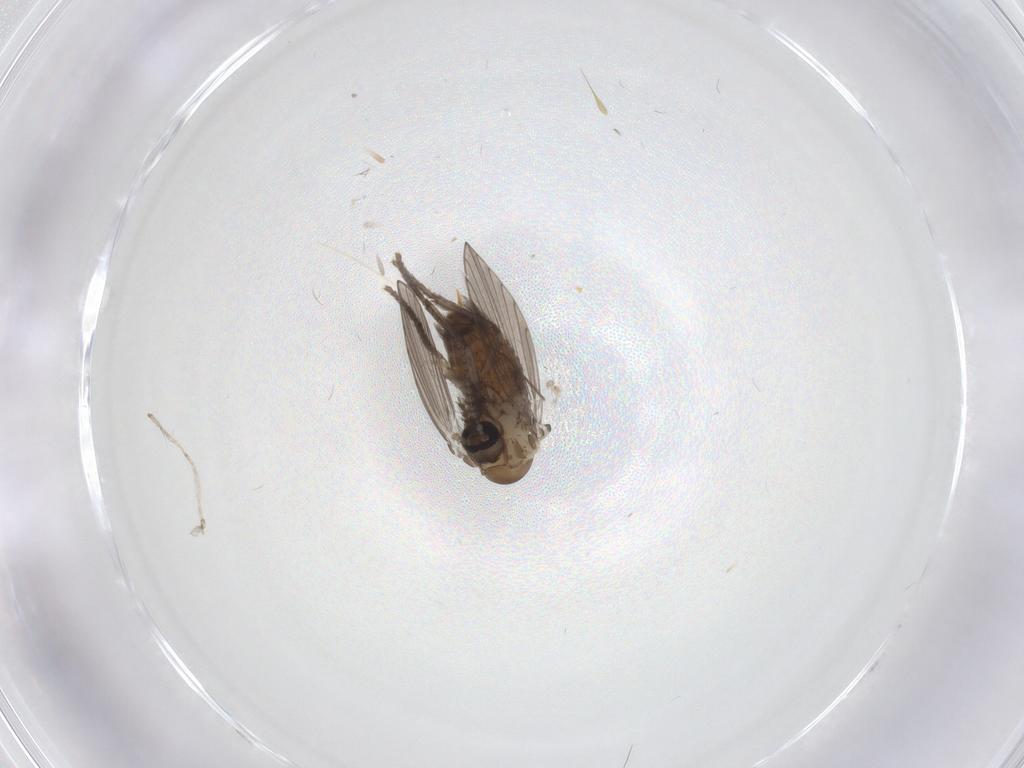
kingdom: Animalia
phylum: Arthropoda
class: Insecta
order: Diptera
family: Psychodidae
